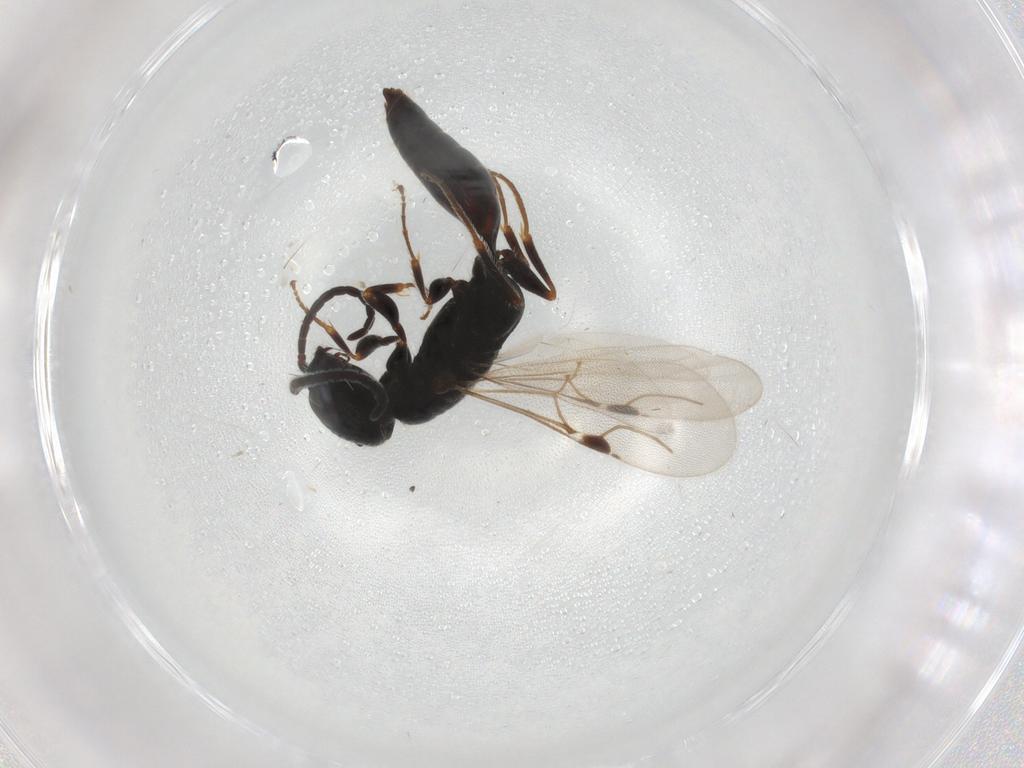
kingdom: Animalia
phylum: Arthropoda
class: Insecta
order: Hymenoptera
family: Bethylidae
